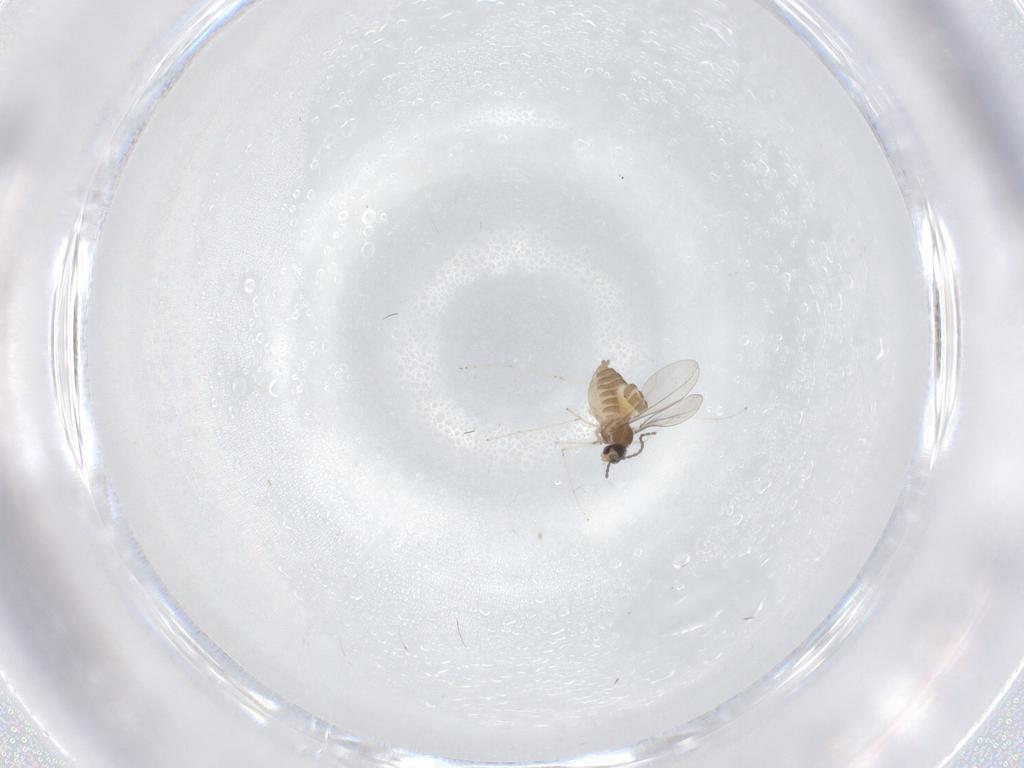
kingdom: Animalia
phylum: Arthropoda
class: Insecta
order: Diptera
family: Cecidomyiidae
